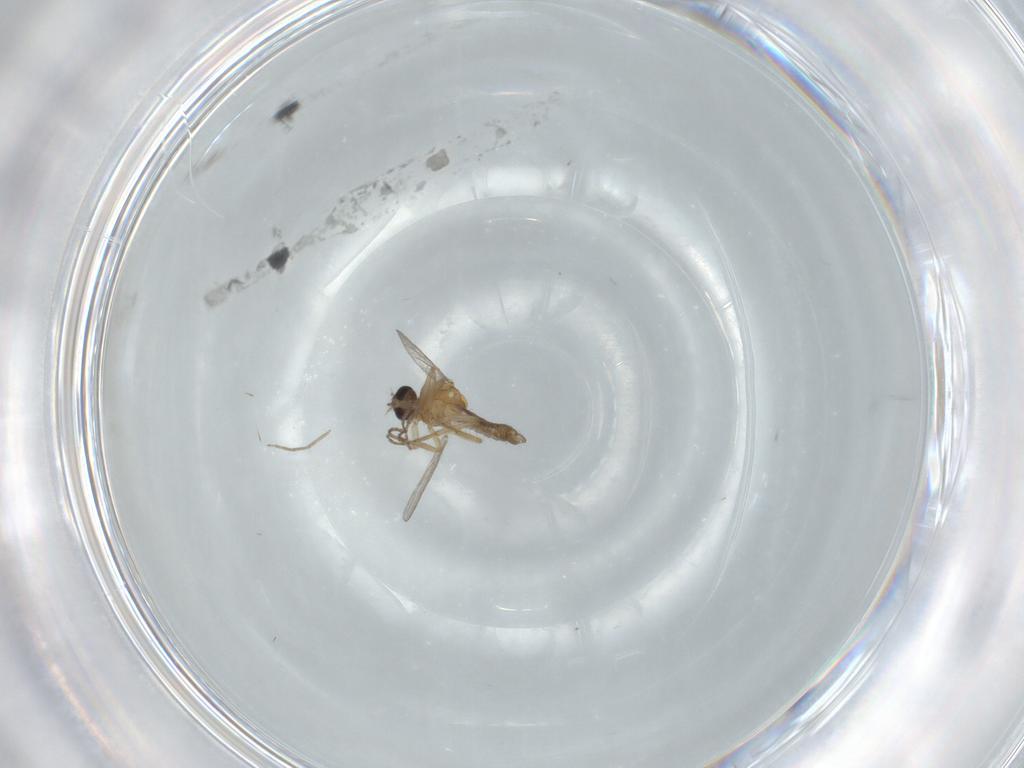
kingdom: Animalia
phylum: Arthropoda
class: Insecta
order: Diptera
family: Ceratopogonidae
